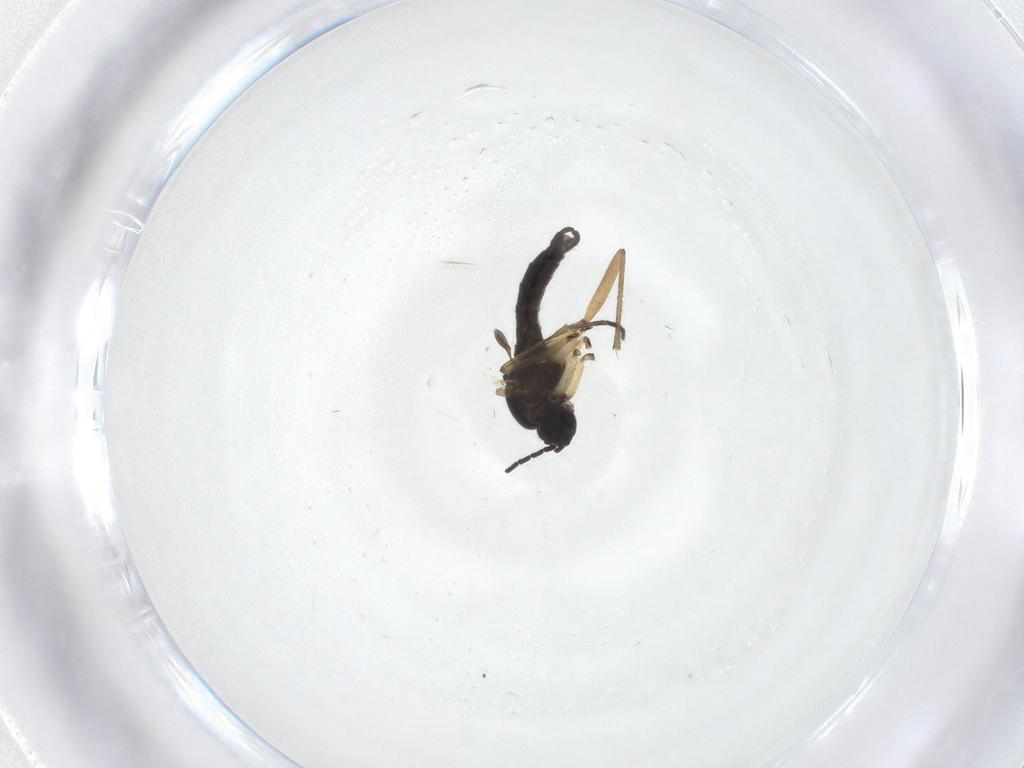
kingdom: Animalia
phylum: Arthropoda
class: Insecta
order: Diptera
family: Sciaridae
